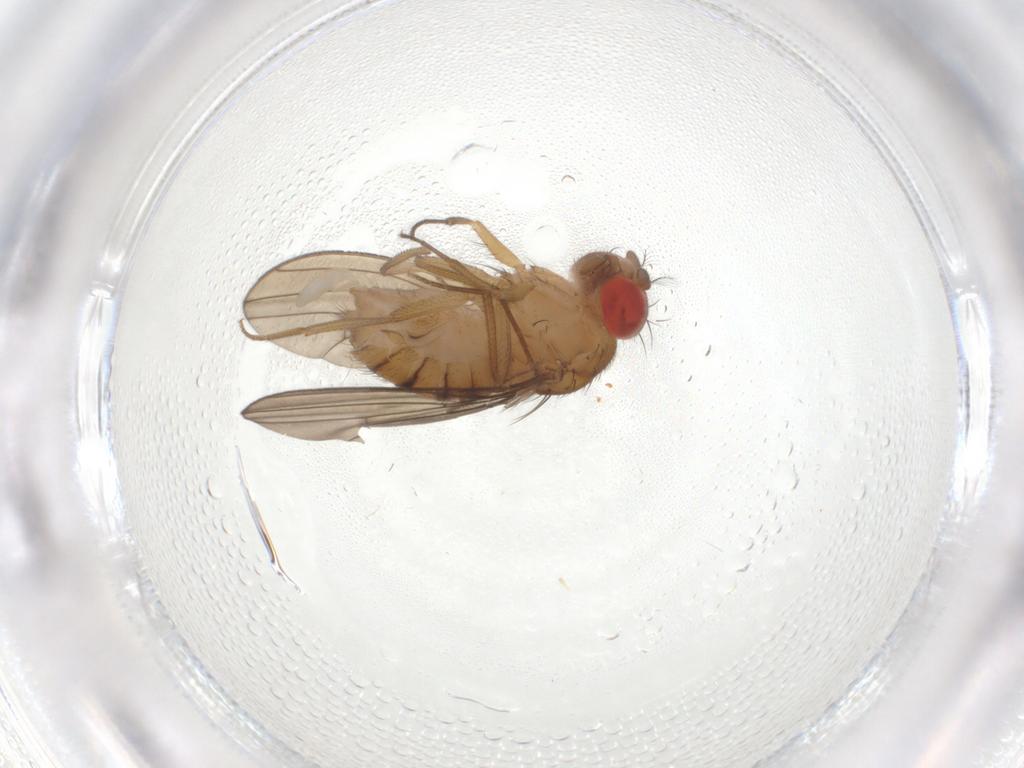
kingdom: Animalia
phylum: Arthropoda
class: Insecta
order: Diptera
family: Drosophilidae
